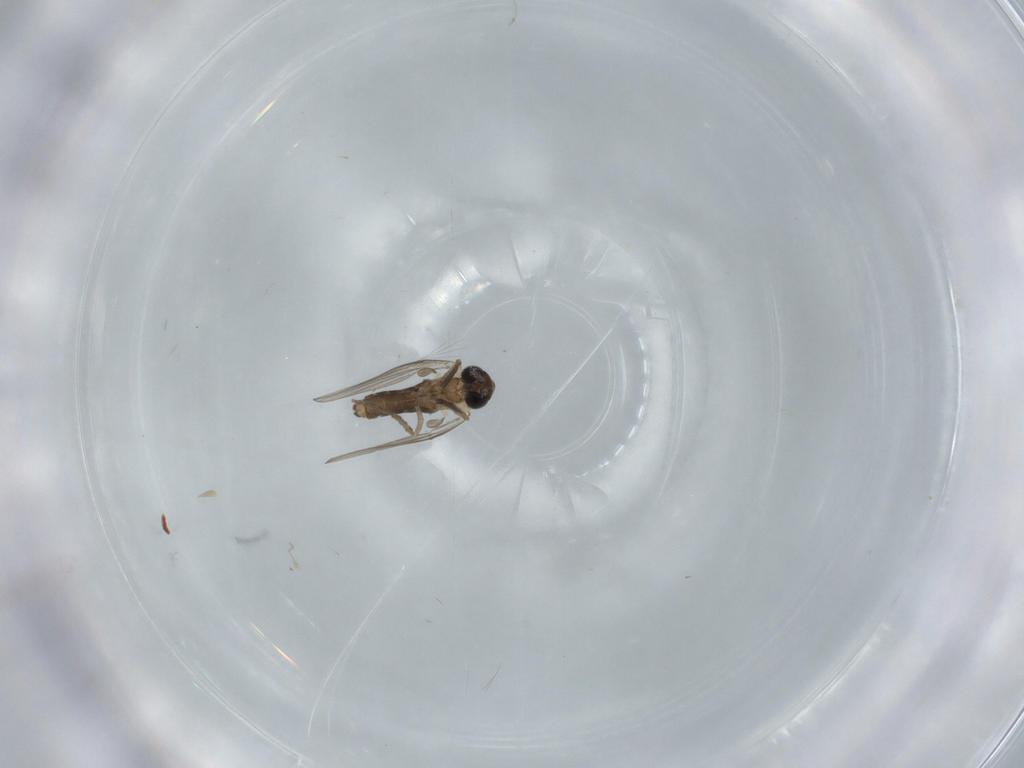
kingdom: Animalia
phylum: Arthropoda
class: Insecta
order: Diptera
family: Psychodidae
